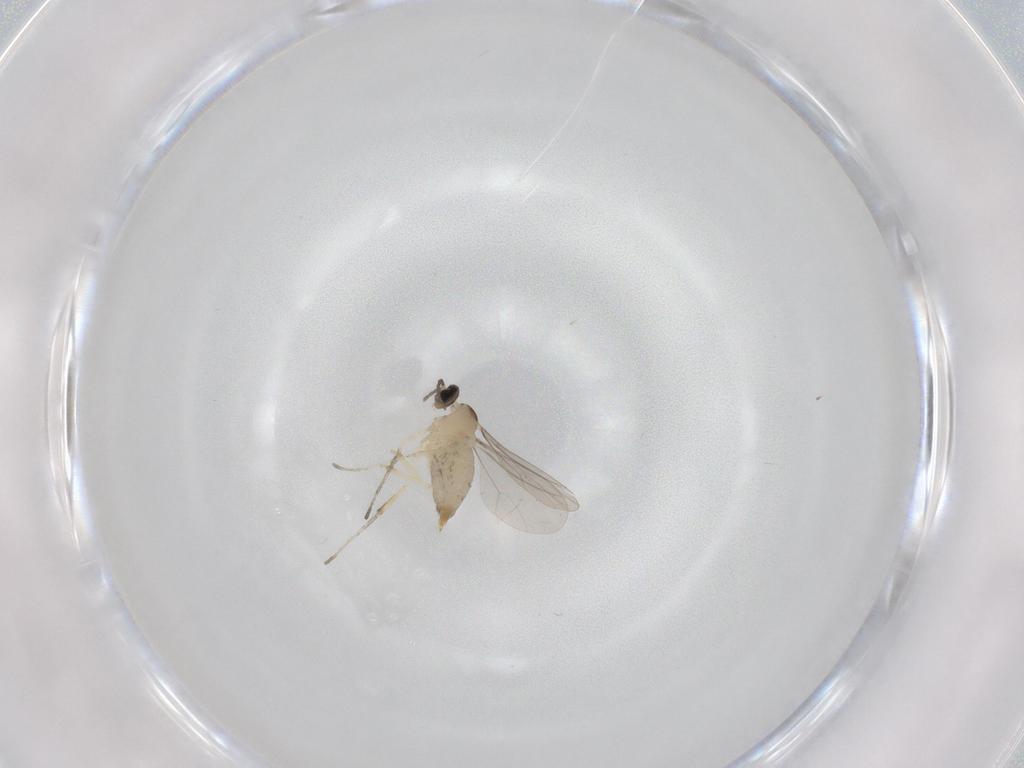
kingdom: Animalia
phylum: Arthropoda
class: Insecta
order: Diptera
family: Cecidomyiidae
